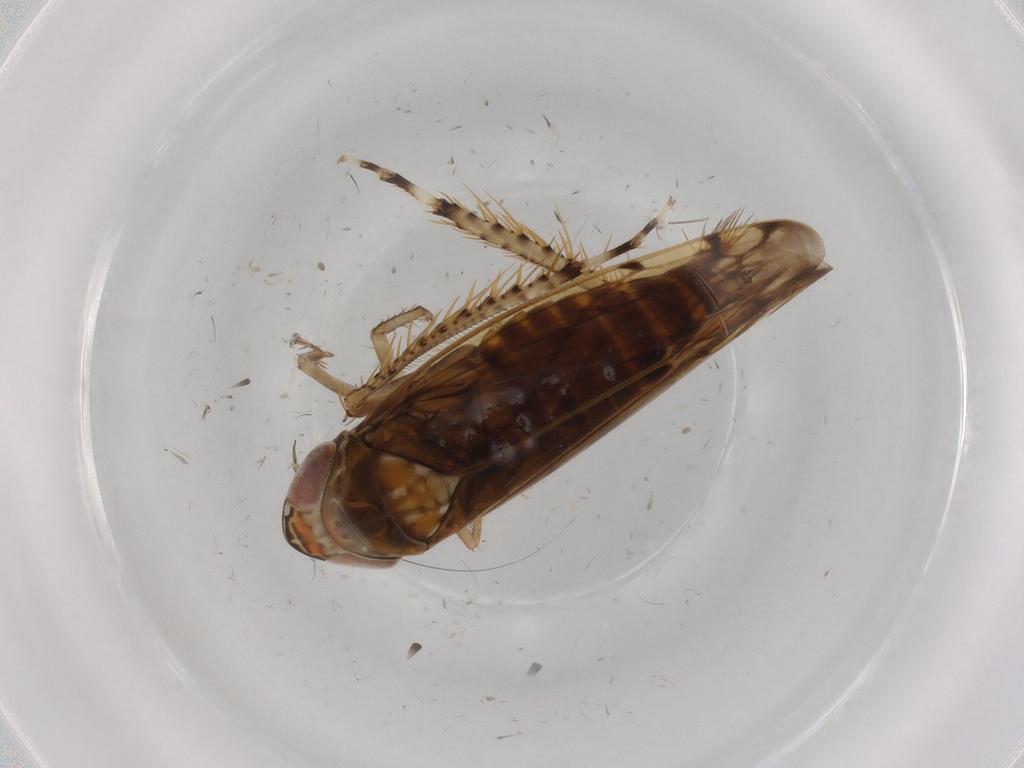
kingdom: Animalia
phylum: Arthropoda
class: Insecta
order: Hemiptera
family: Cicadellidae
